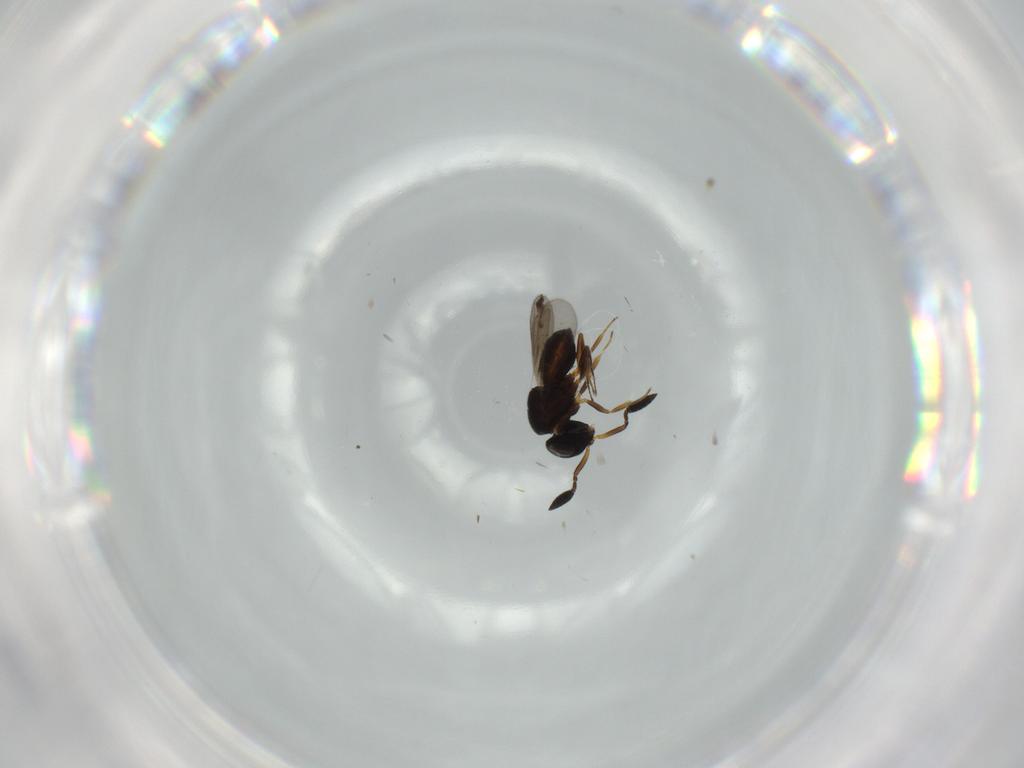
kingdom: Animalia
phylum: Arthropoda
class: Insecta
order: Hymenoptera
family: Scelionidae
